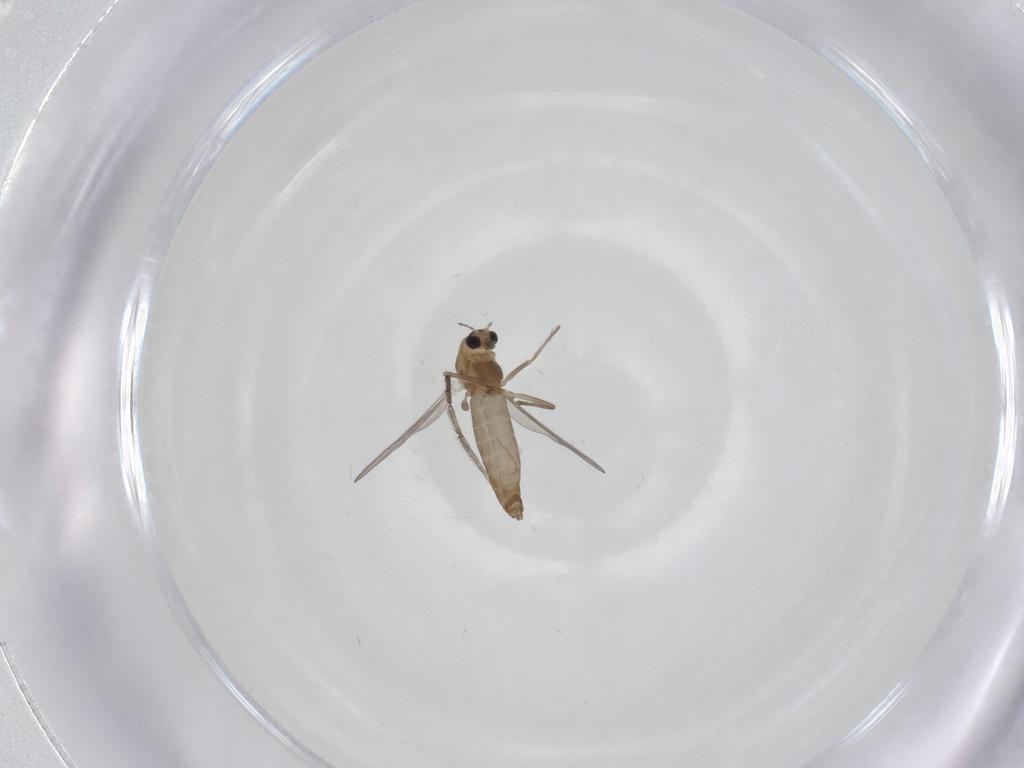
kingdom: Animalia
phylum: Arthropoda
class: Insecta
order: Diptera
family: Chironomidae
